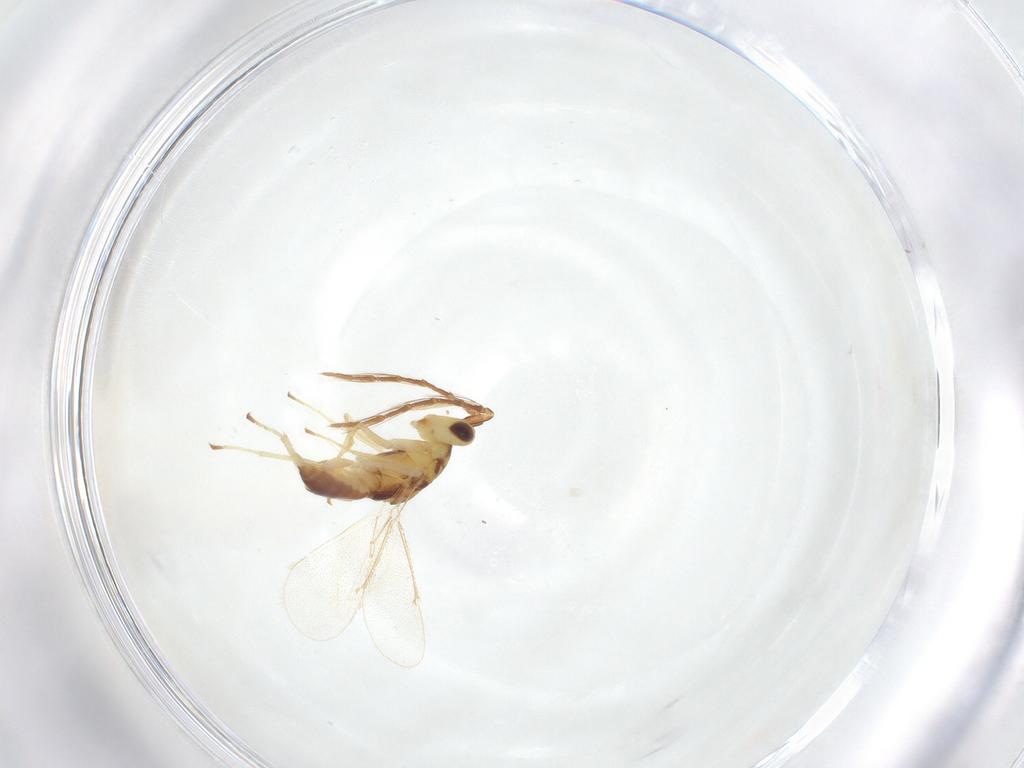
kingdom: Animalia
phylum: Arthropoda
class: Insecta
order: Hymenoptera
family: Eulophidae
